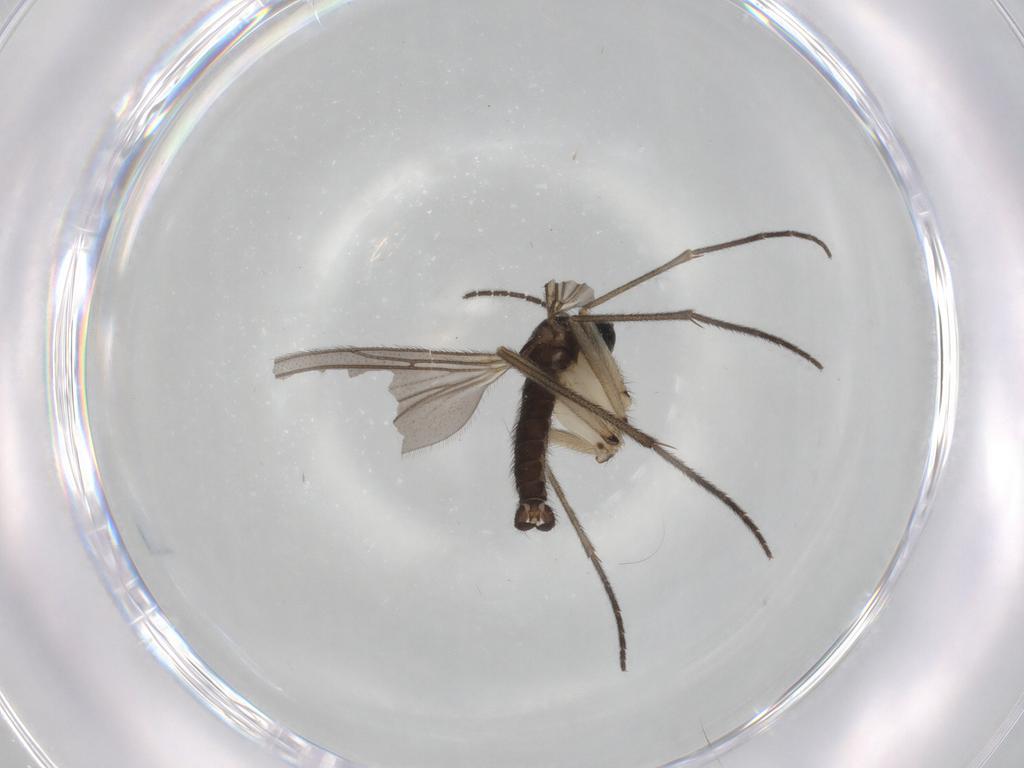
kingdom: Animalia
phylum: Arthropoda
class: Insecta
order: Diptera
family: Sciaridae
